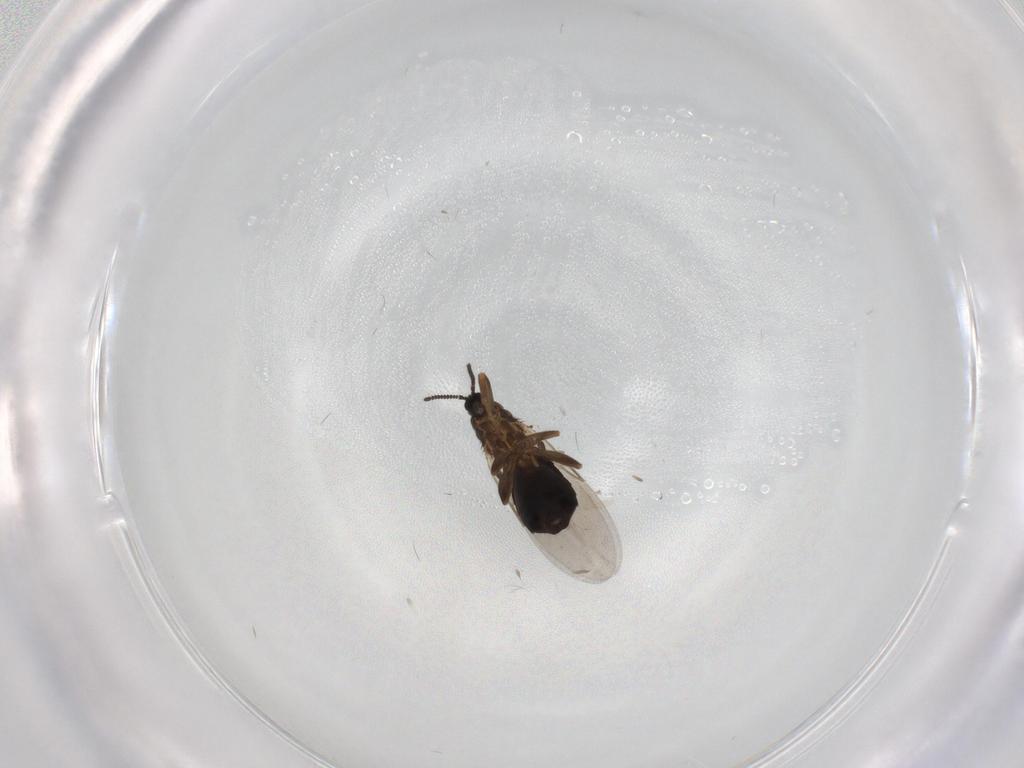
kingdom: Animalia
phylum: Arthropoda
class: Insecta
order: Diptera
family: Scatopsidae
